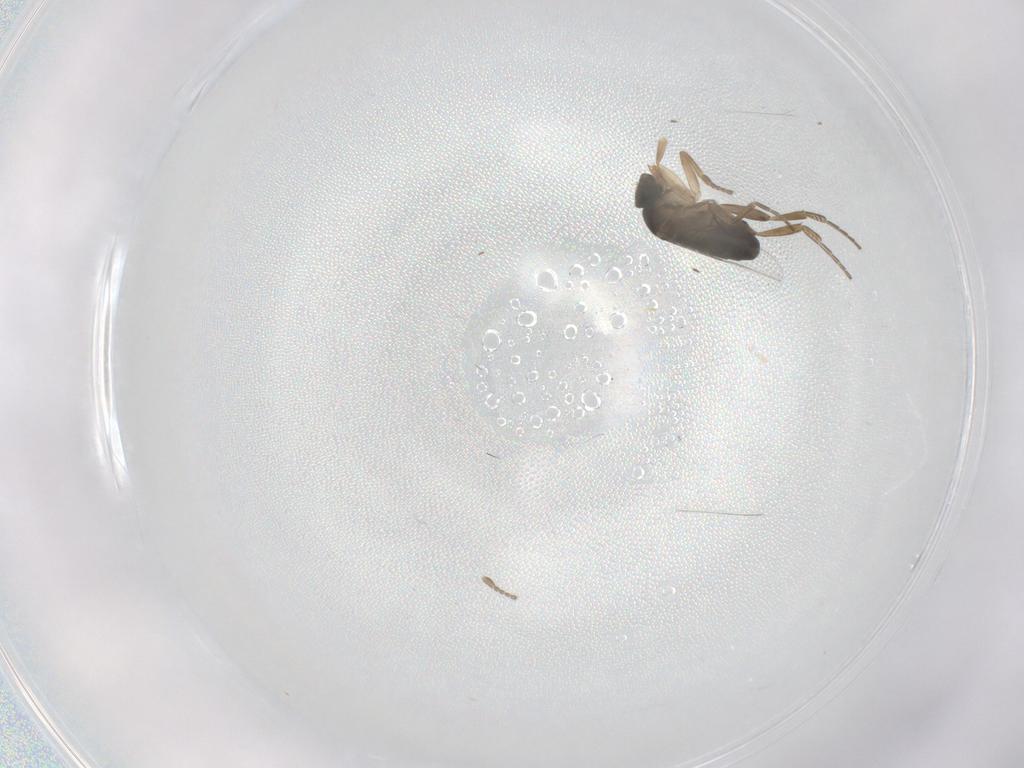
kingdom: Animalia
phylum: Arthropoda
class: Insecta
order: Diptera
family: Phoridae
